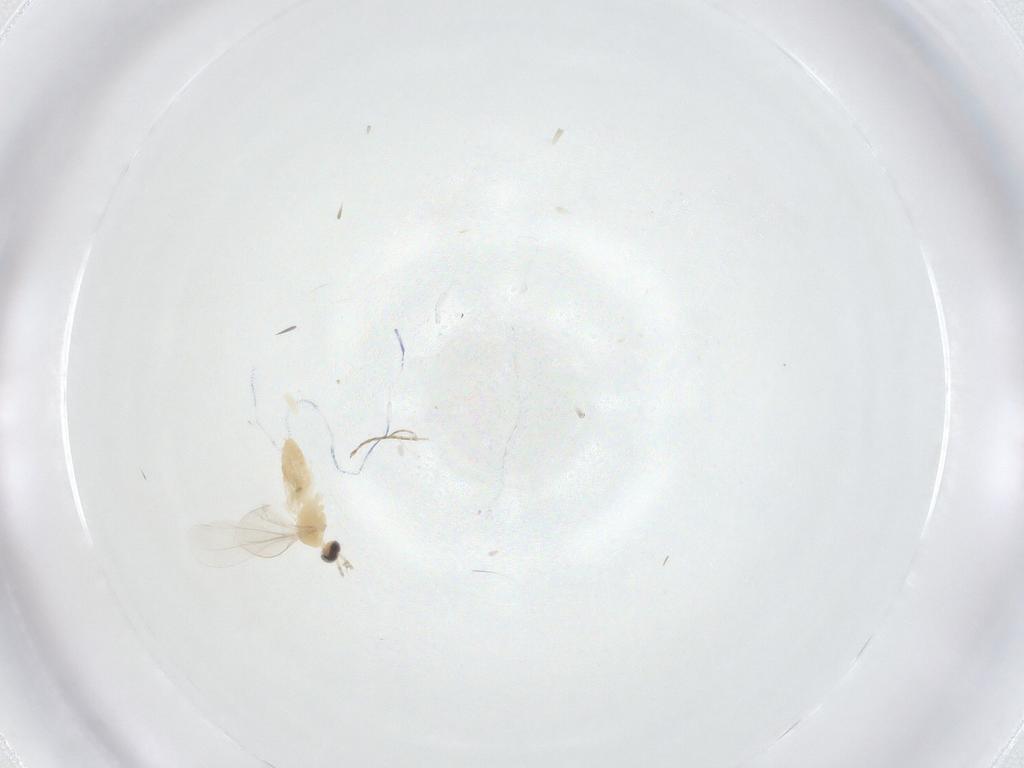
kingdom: Animalia
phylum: Arthropoda
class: Insecta
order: Diptera
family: Cecidomyiidae
